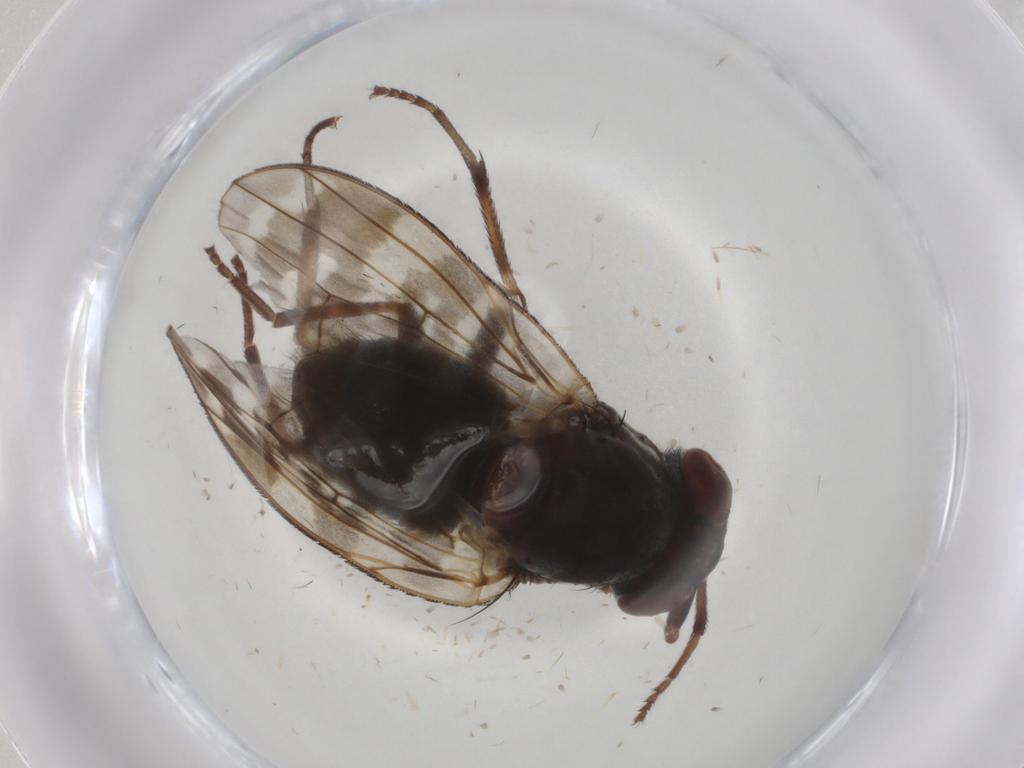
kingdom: Animalia
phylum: Arthropoda
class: Insecta
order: Diptera
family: Lauxaniidae
